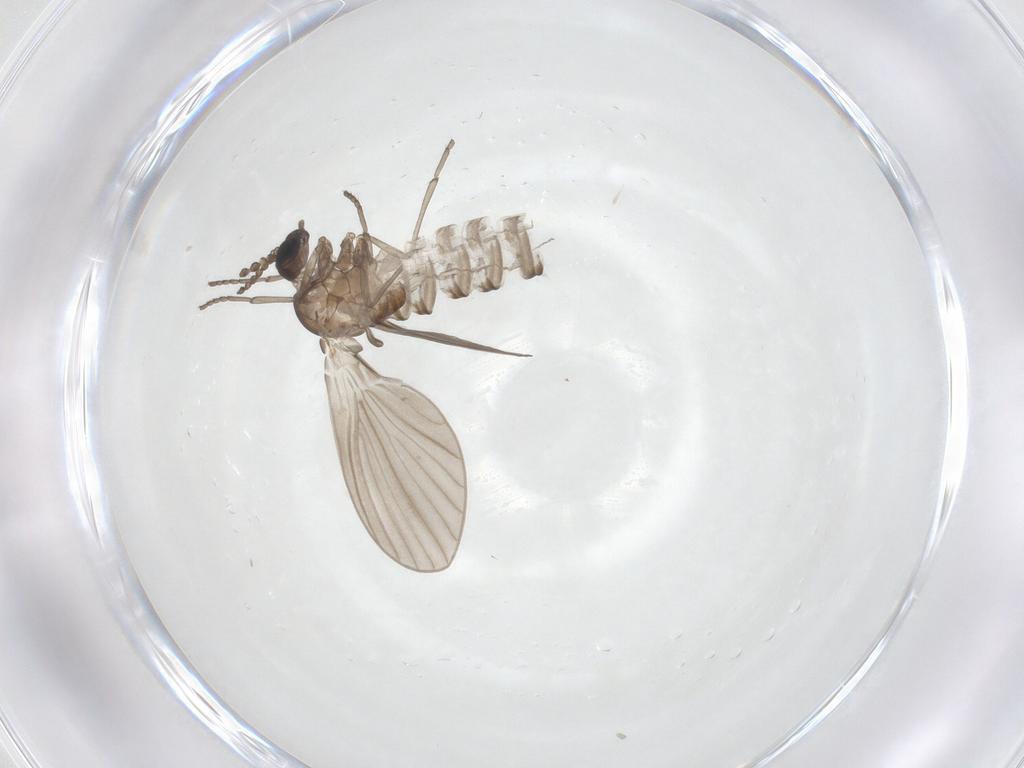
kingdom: Animalia
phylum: Arthropoda
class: Insecta
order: Diptera
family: Psychodidae
